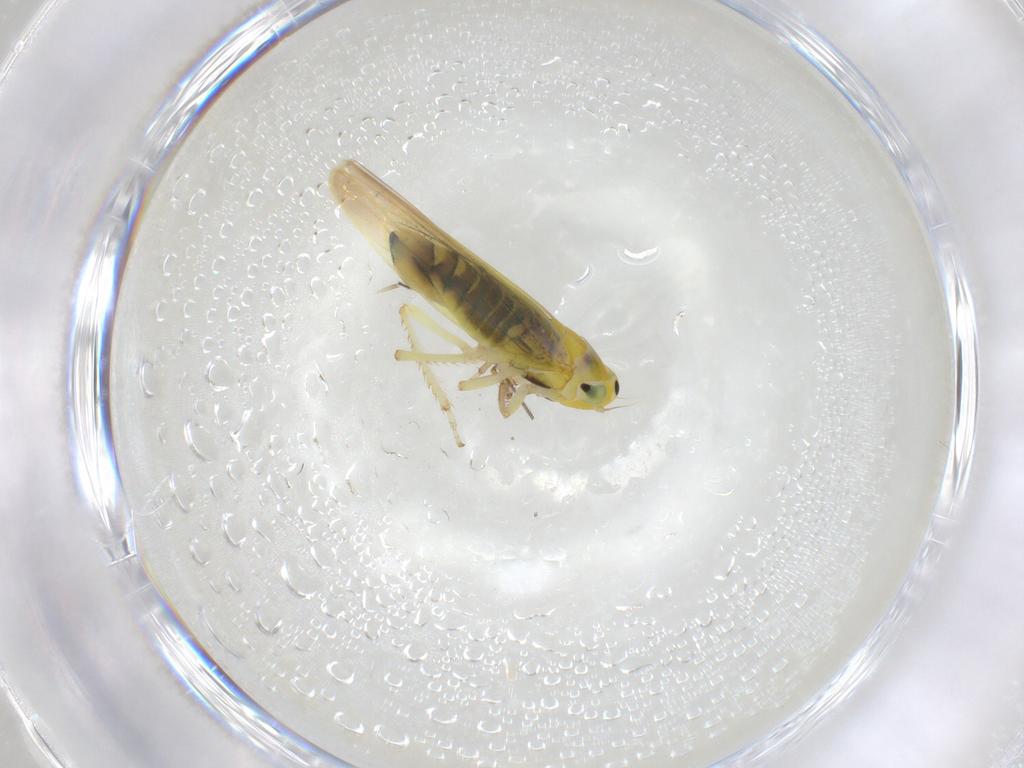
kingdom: Animalia
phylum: Arthropoda
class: Insecta
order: Hemiptera
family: Cicadellidae
